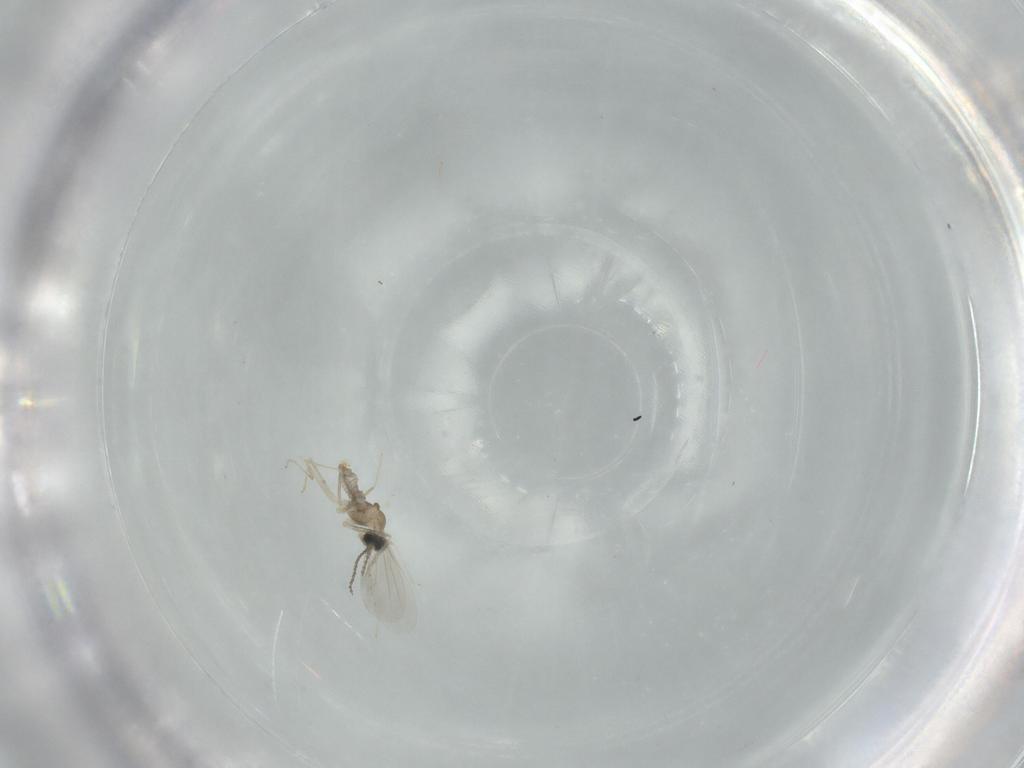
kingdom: Animalia
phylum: Arthropoda
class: Insecta
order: Diptera
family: Cecidomyiidae
